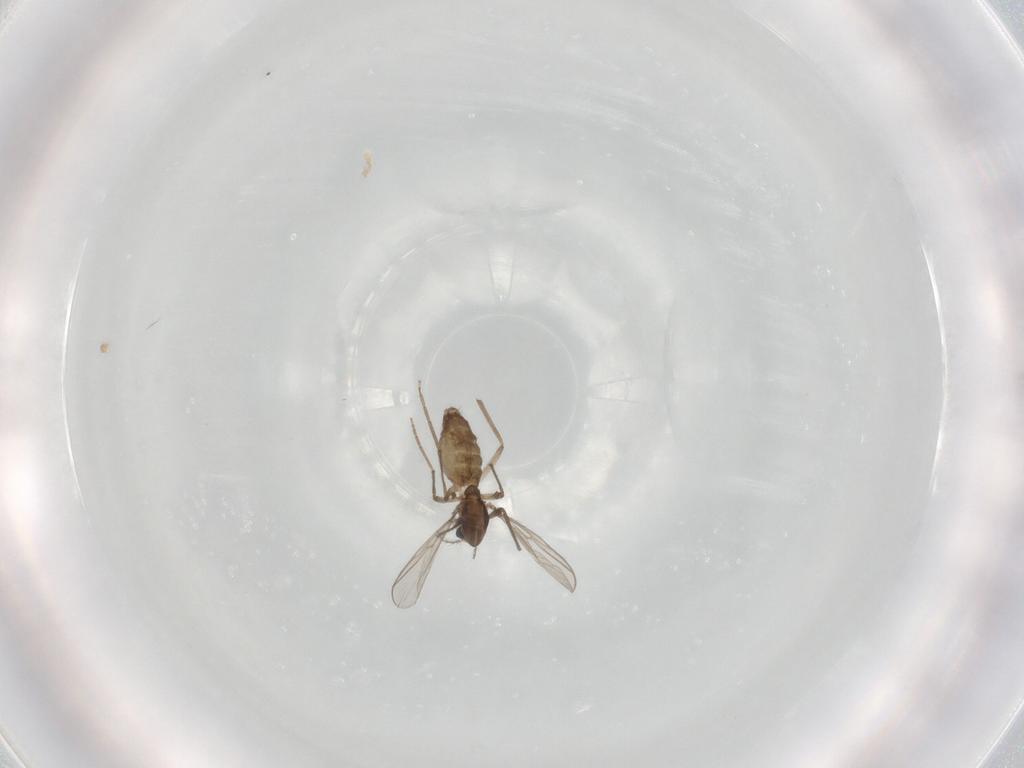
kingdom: Animalia
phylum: Arthropoda
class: Insecta
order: Diptera
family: Chironomidae
